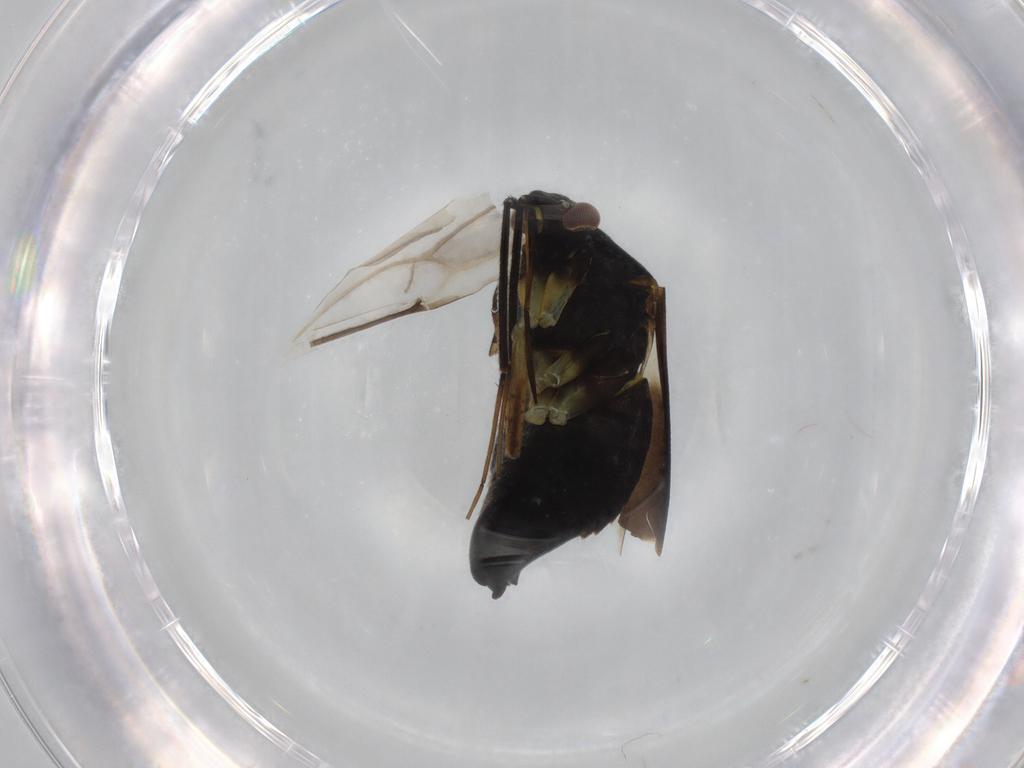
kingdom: Animalia
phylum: Arthropoda
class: Insecta
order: Hemiptera
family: Miridae
